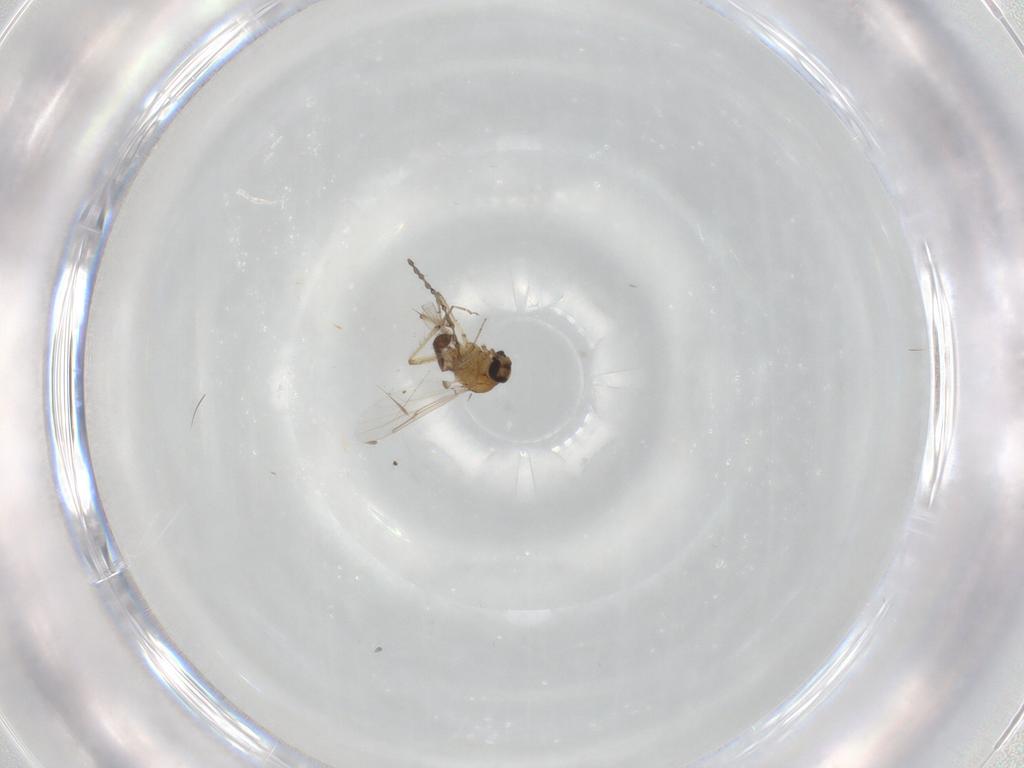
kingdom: Animalia
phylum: Arthropoda
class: Insecta
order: Diptera
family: Cecidomyiidae
